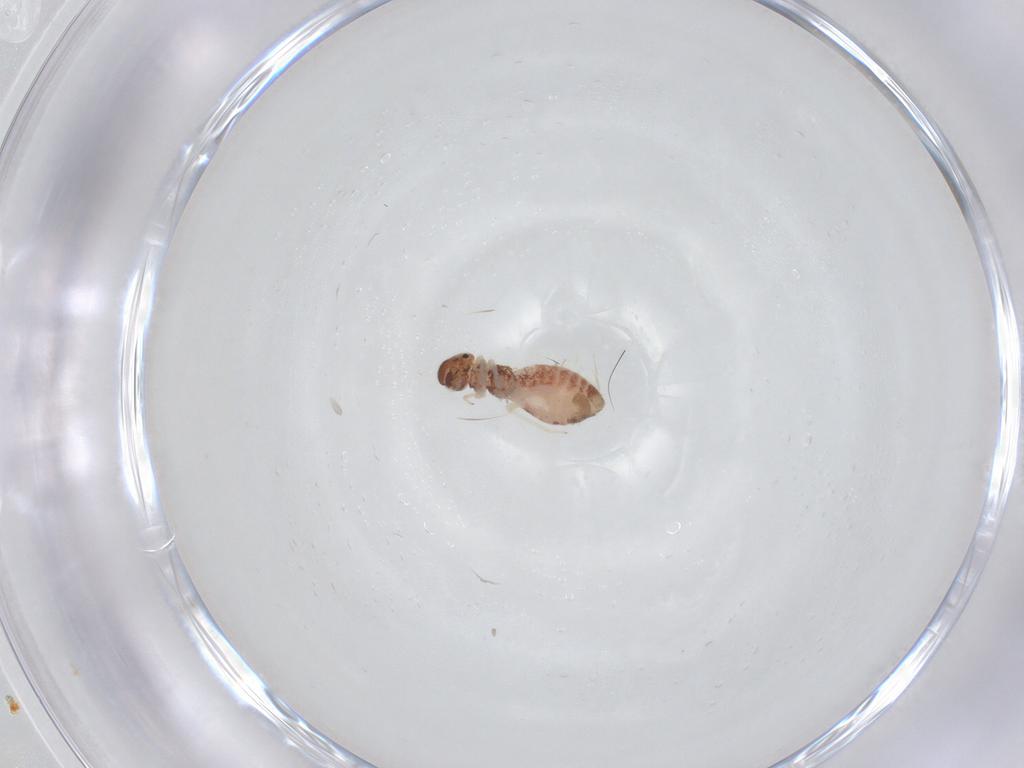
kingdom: Animalia
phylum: Arthropoda
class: Insecta
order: Psocodea
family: Archipsocidae
